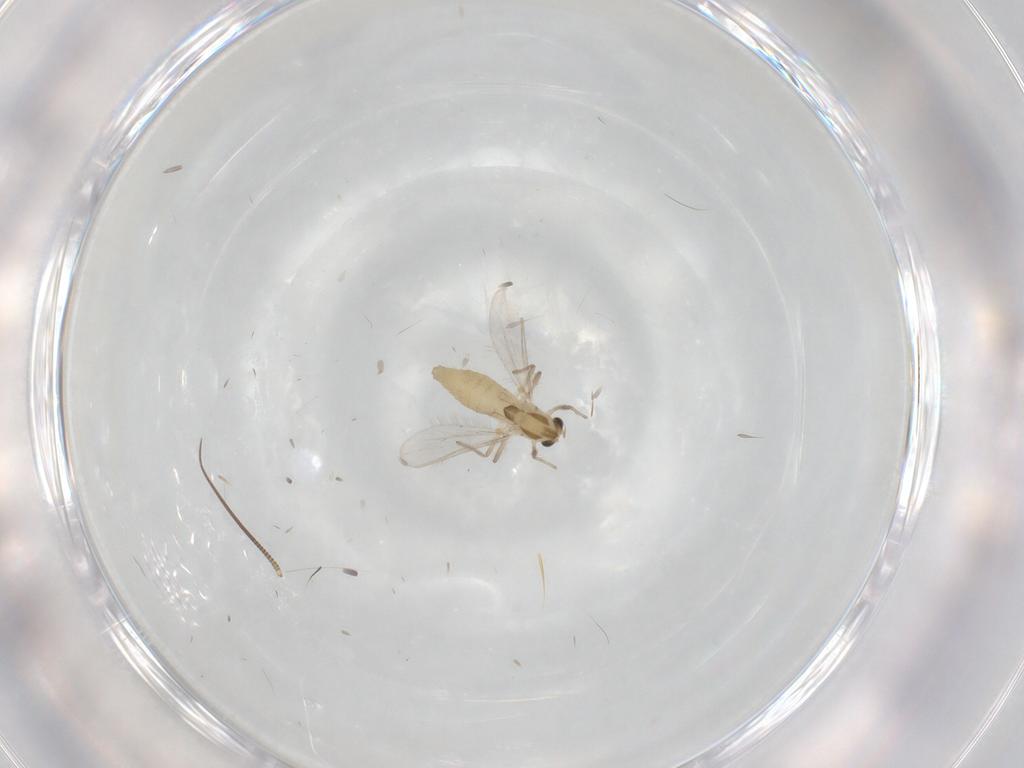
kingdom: Animalia
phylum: Arthropoda
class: Insecta
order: Diptera
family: Chironomidae
